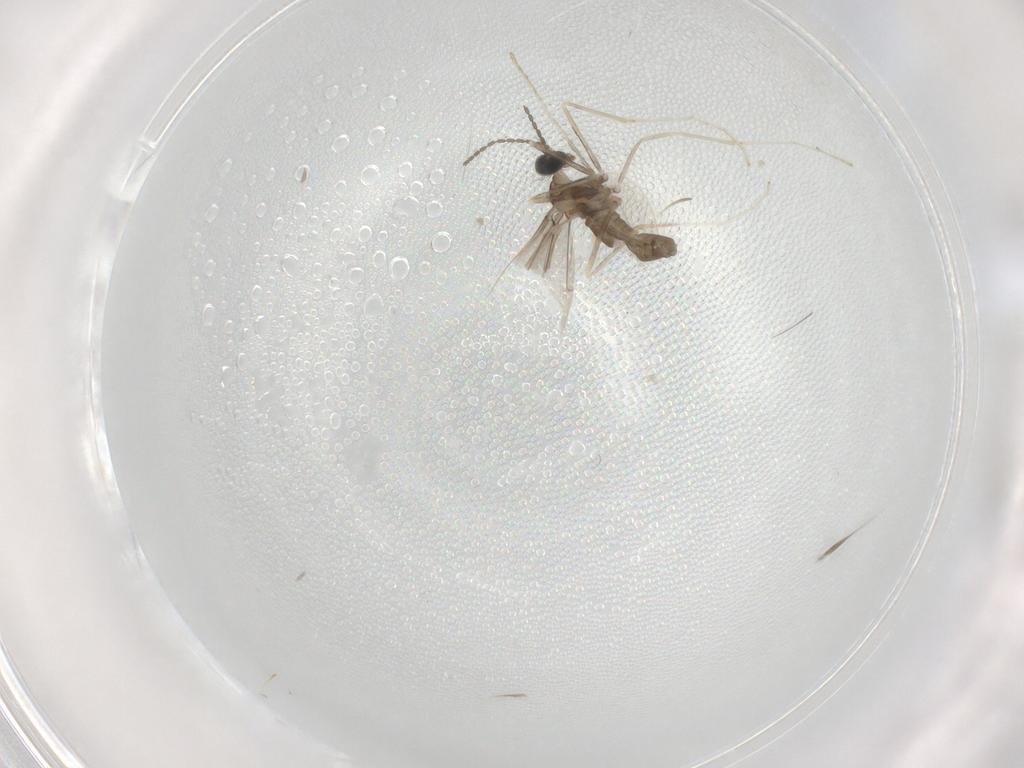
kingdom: Animalia
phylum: Arthropoda
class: Insecta
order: Diptera
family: Cecidomyiidae
